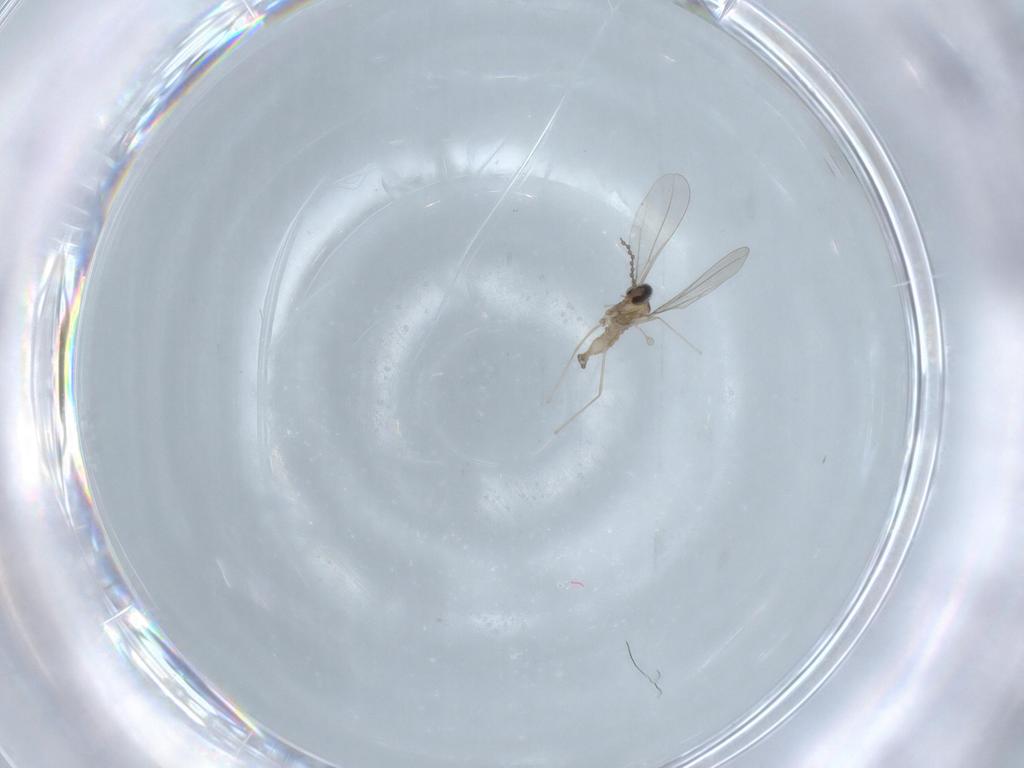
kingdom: Animalia
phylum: Arthropoda
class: Insecta
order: Diptera
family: Cecidomyiidae
